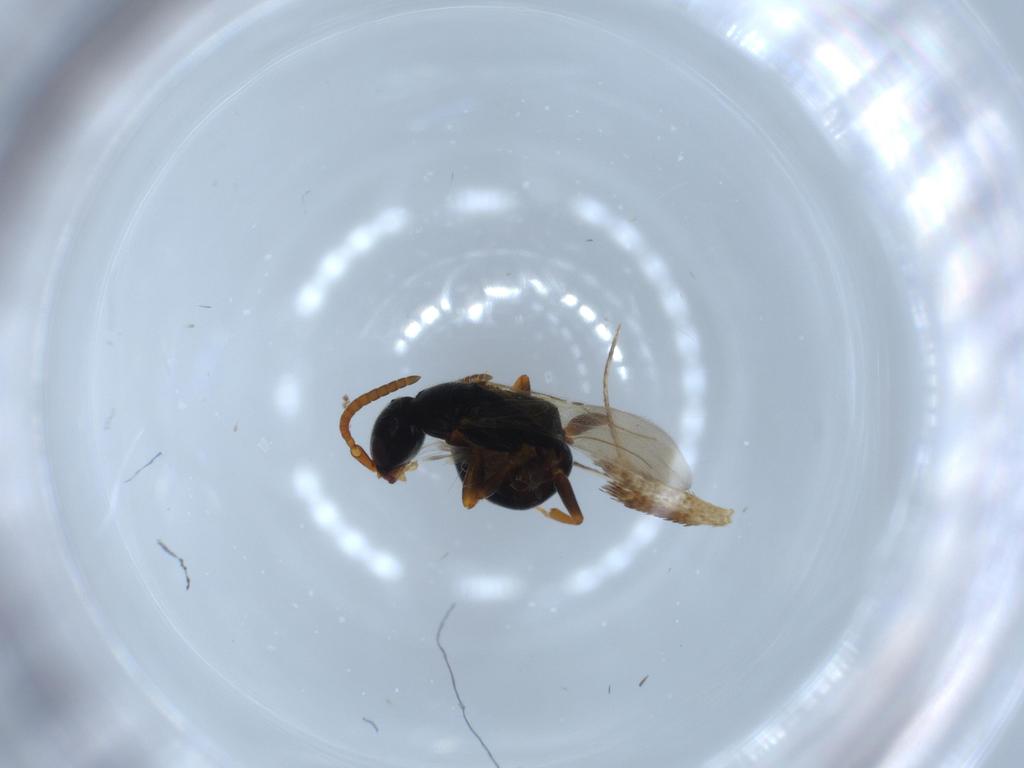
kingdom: Animalia
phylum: Arthropoda
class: Insecta
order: Hymenoptera
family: Bethylidae
